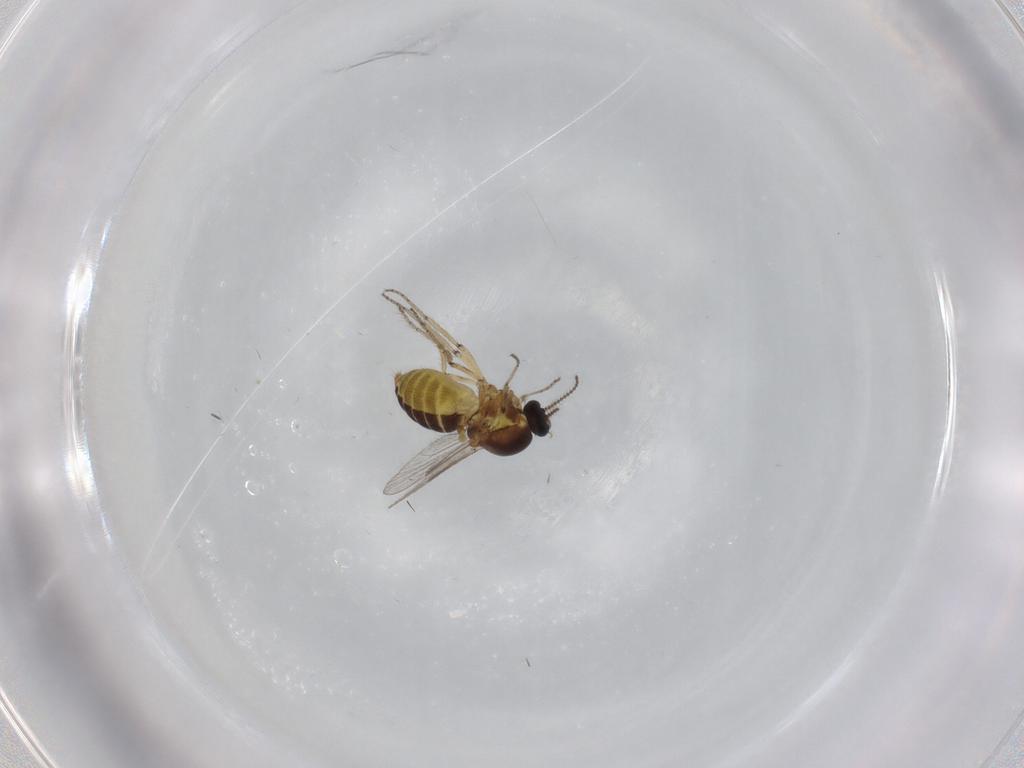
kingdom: Animalia
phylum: Arthropoda
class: Insecta
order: Diptera
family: Ceratopogonidae
